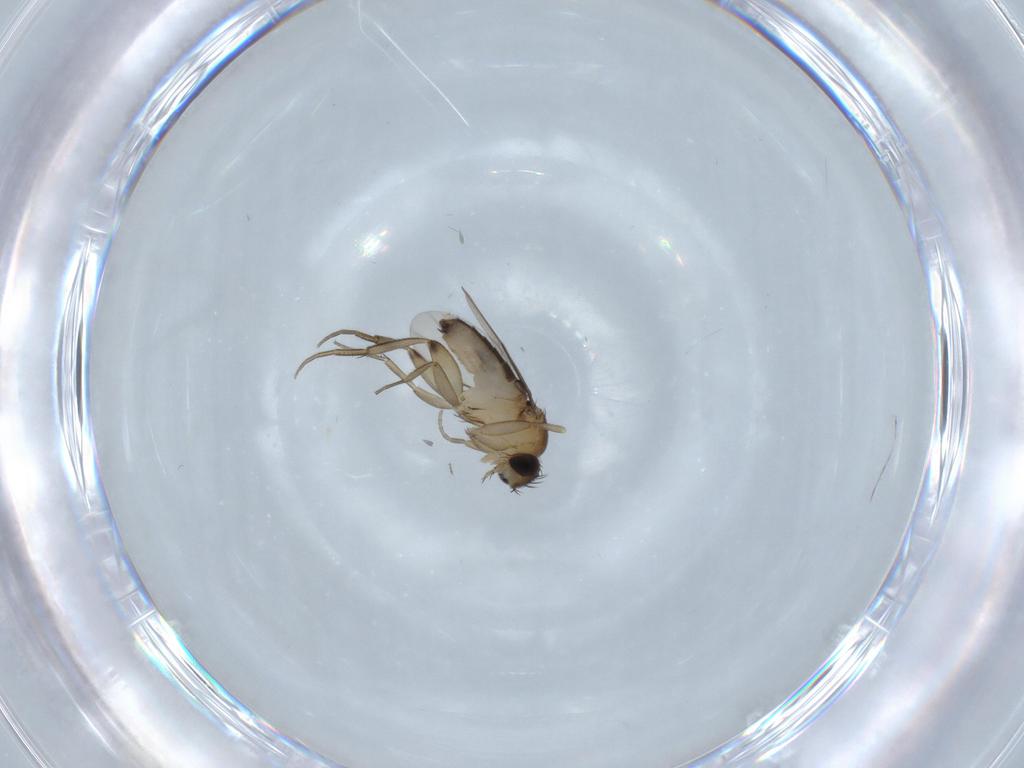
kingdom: Animalia
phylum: Arthropoda
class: Insecta
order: Diptera
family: Phoridae
